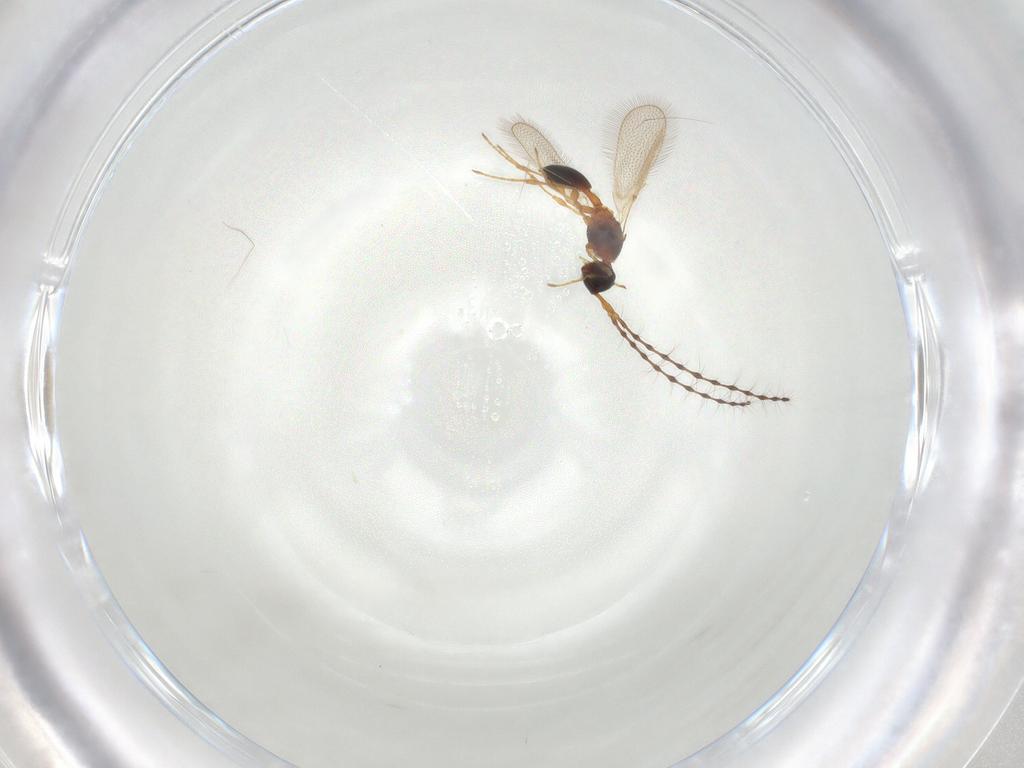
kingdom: Animalia
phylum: Arthropoda
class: Insecta
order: Hymenoptera
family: Diapriidae
